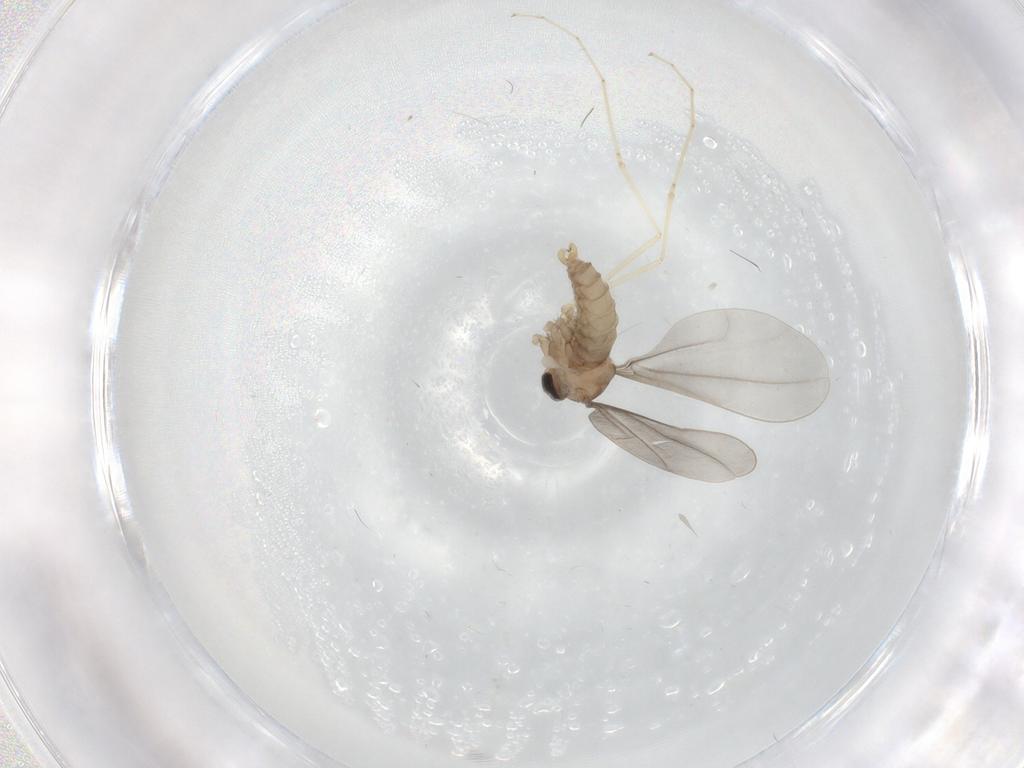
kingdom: Animalia
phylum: Arthropoda
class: Insecta
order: Diptera
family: Cecidomyiidae
